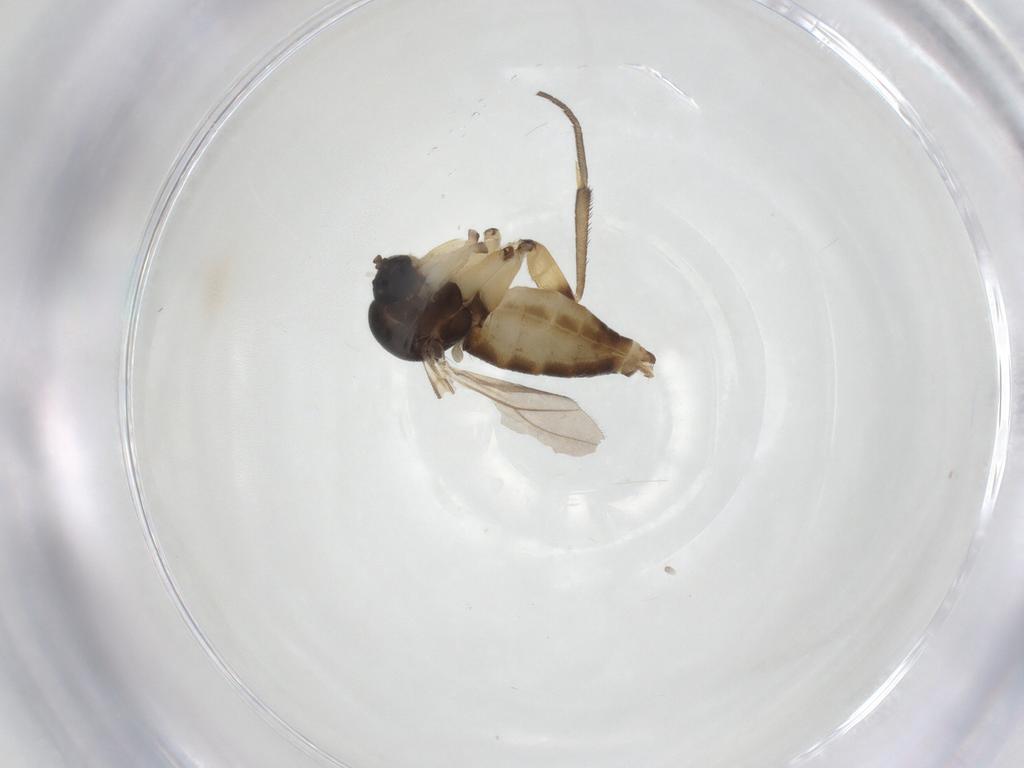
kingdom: Animalia
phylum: Arthropoda
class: Insecta
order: Diptera
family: Mycetophilidae
